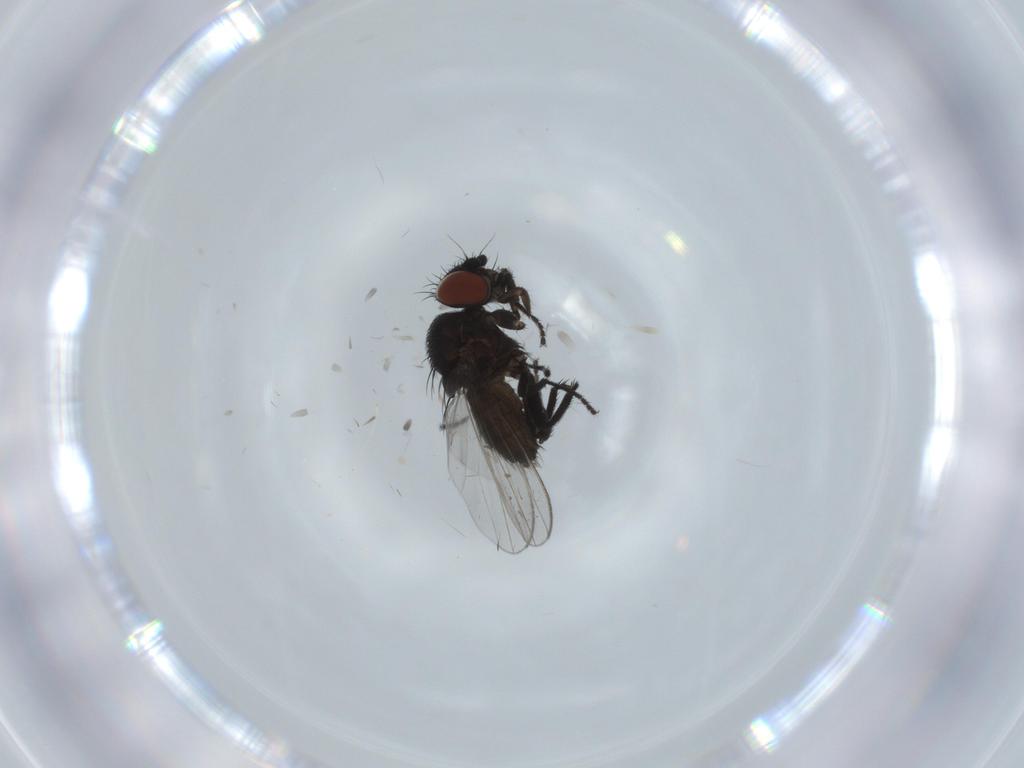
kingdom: Animalia
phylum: Arthropoda
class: Insecta
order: Diptera
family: Milichiidae
